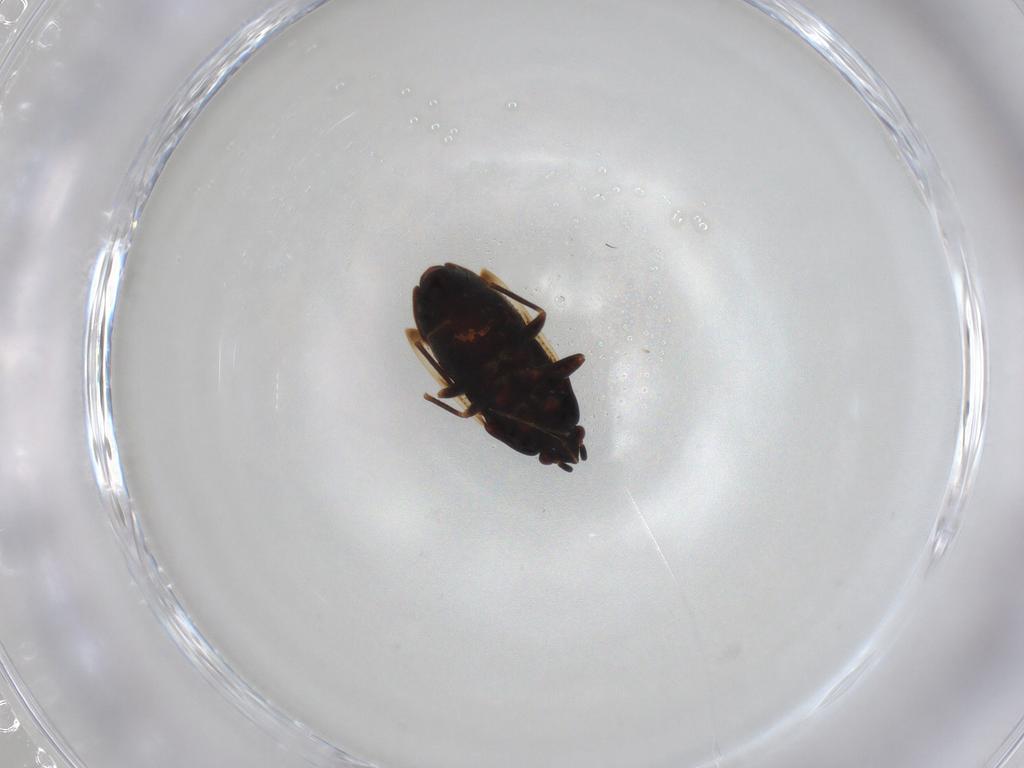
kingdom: Animalia
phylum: Arthropoda
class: Insecta
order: Hemiptera
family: Rhyparochromidae
